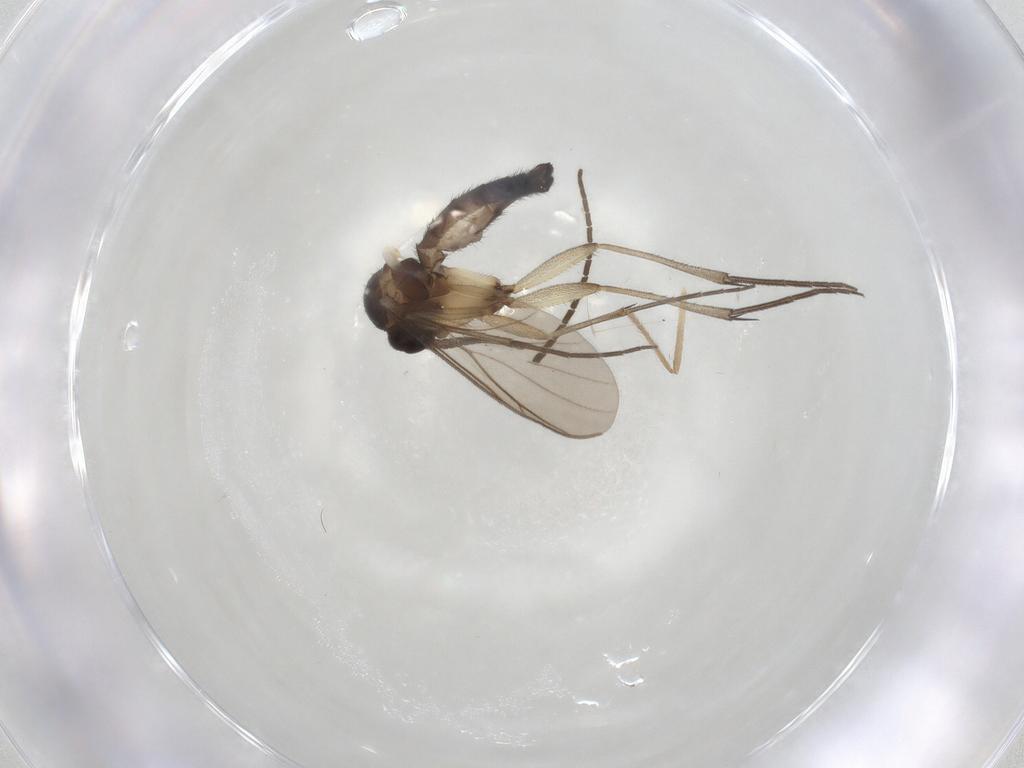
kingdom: Animalia
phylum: Arthropoda
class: Insecta
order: Diptera
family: Keroplatidae
